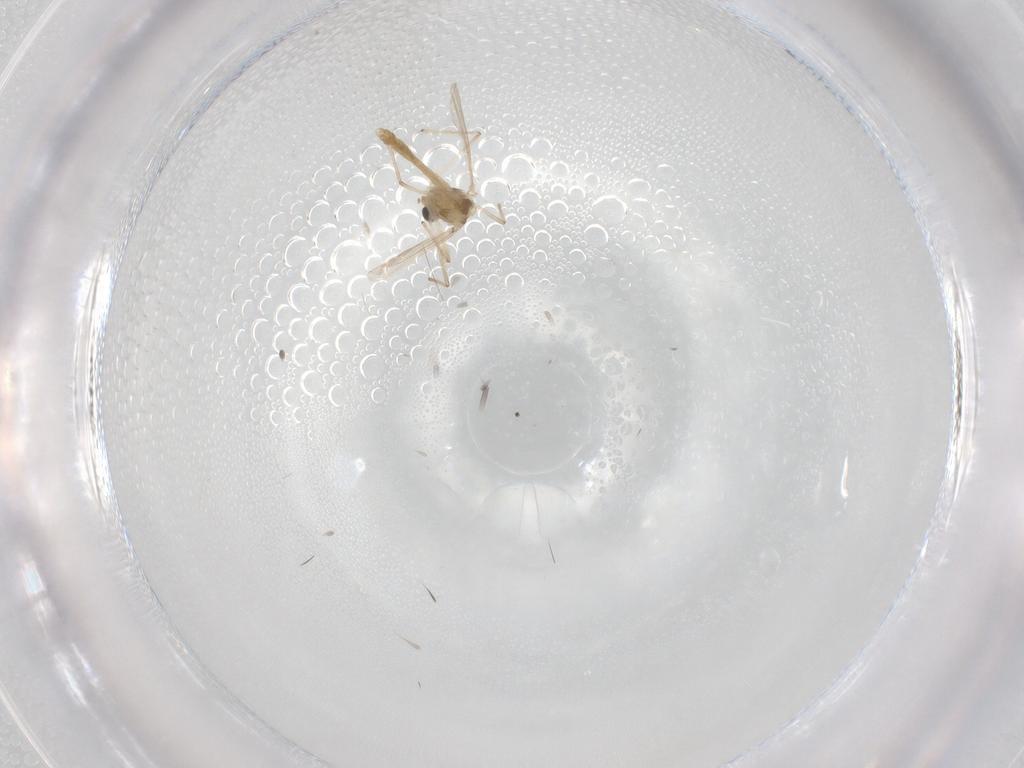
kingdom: Animalia
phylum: Arthropoda
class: Insecta
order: Diptera
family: Chironomidae
